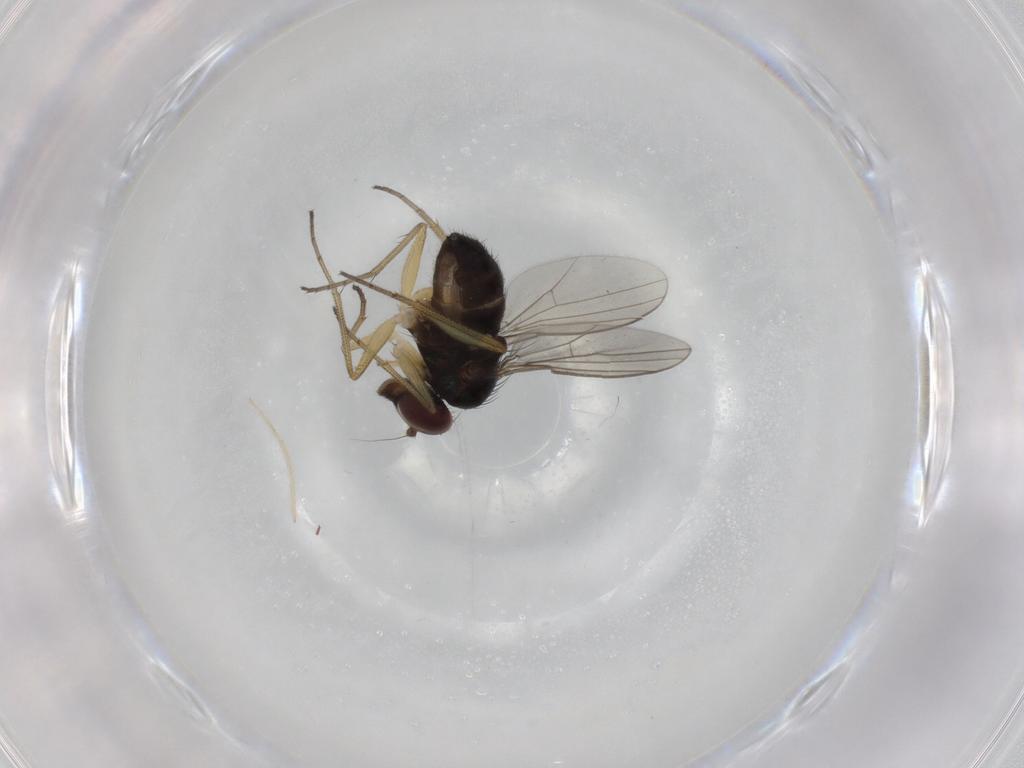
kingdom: Animalia
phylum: Arthropoda
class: Insecta
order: Diptera
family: Dolichopodidae
